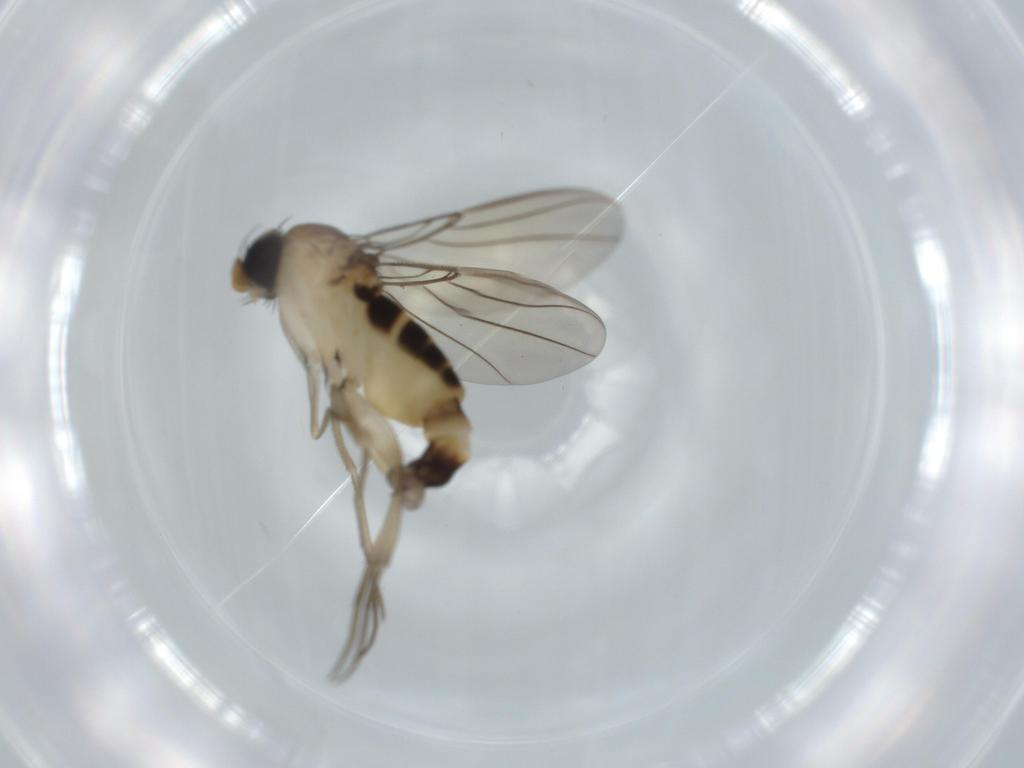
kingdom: Animalia
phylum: Arthropoda
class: Insecta
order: Diptera
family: Phoridae
